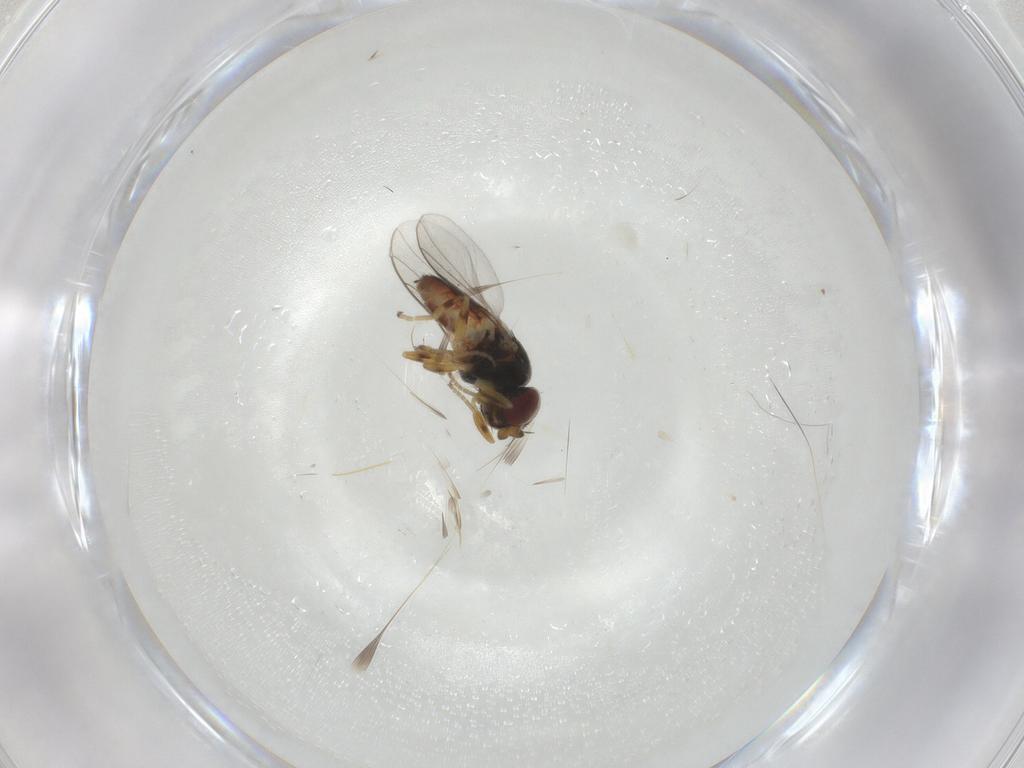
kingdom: Animalia
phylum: Arthropoda
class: Insecta
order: Diptera
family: Chloropidae
